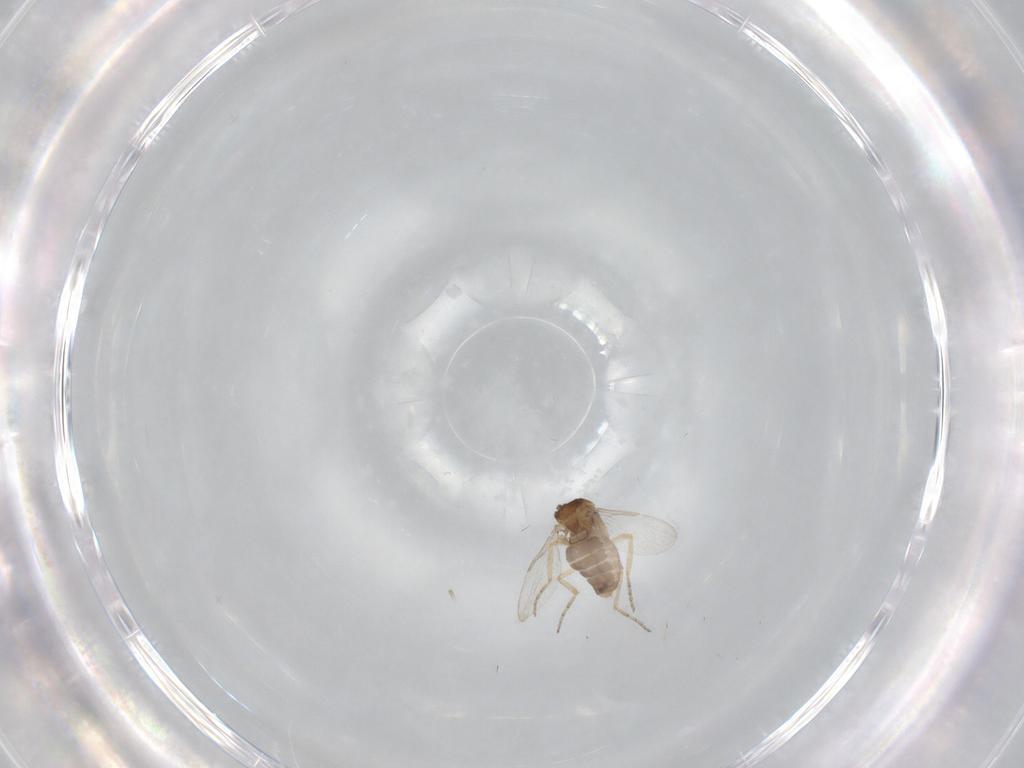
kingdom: Animalia
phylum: Arthropoda
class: Insecta
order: Diptera
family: Ceratopogonidae
